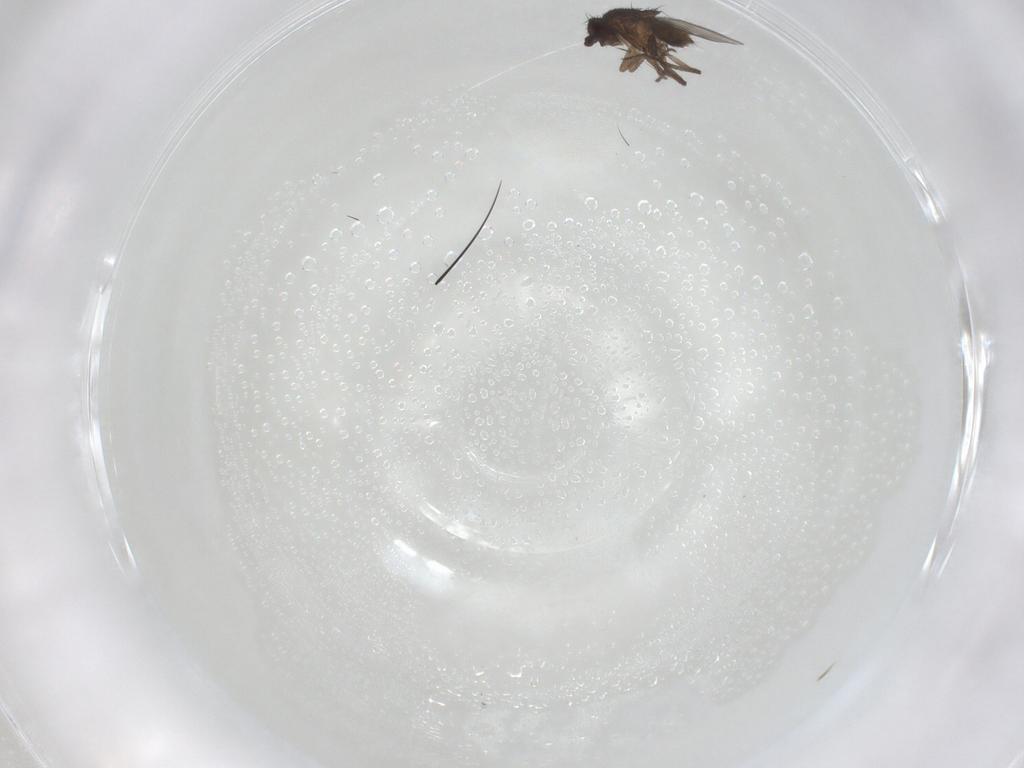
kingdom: Animalia
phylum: Arthropoda
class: Insecta
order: Diptera
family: Sphaeroceridae
